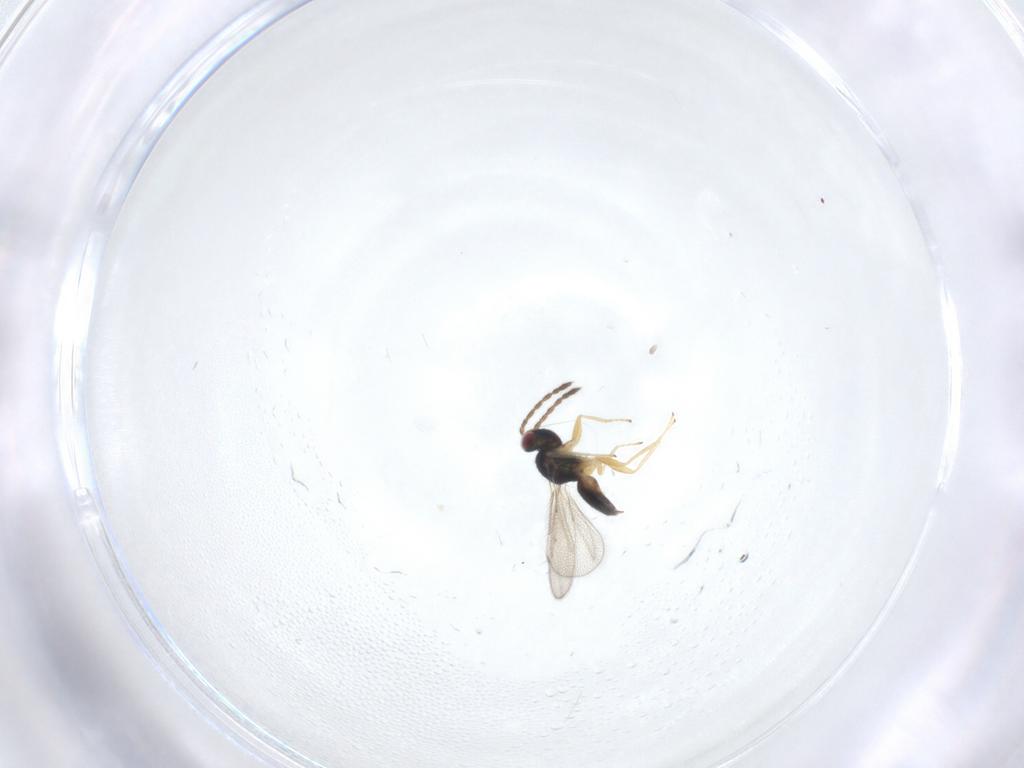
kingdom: Animalia
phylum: Arthropoda
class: Insecta
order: Hymenoptera
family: Eulophidae
